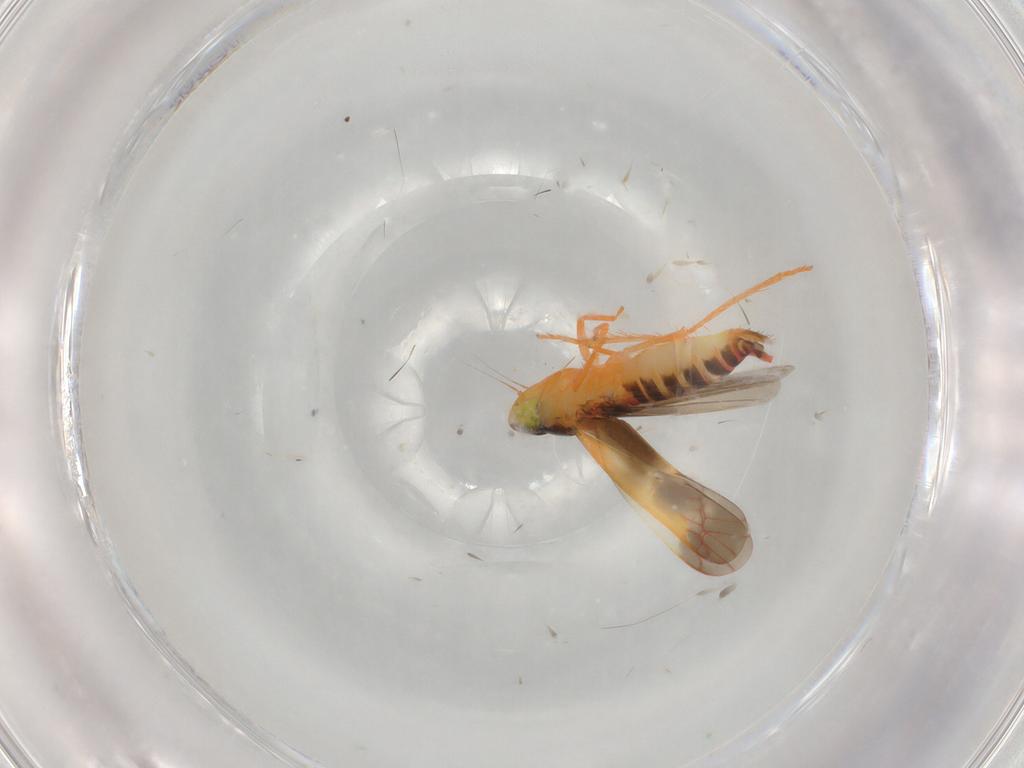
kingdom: Animalia
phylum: Arthropoda
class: Insecta
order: Hemiptera
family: Cicadellidae
